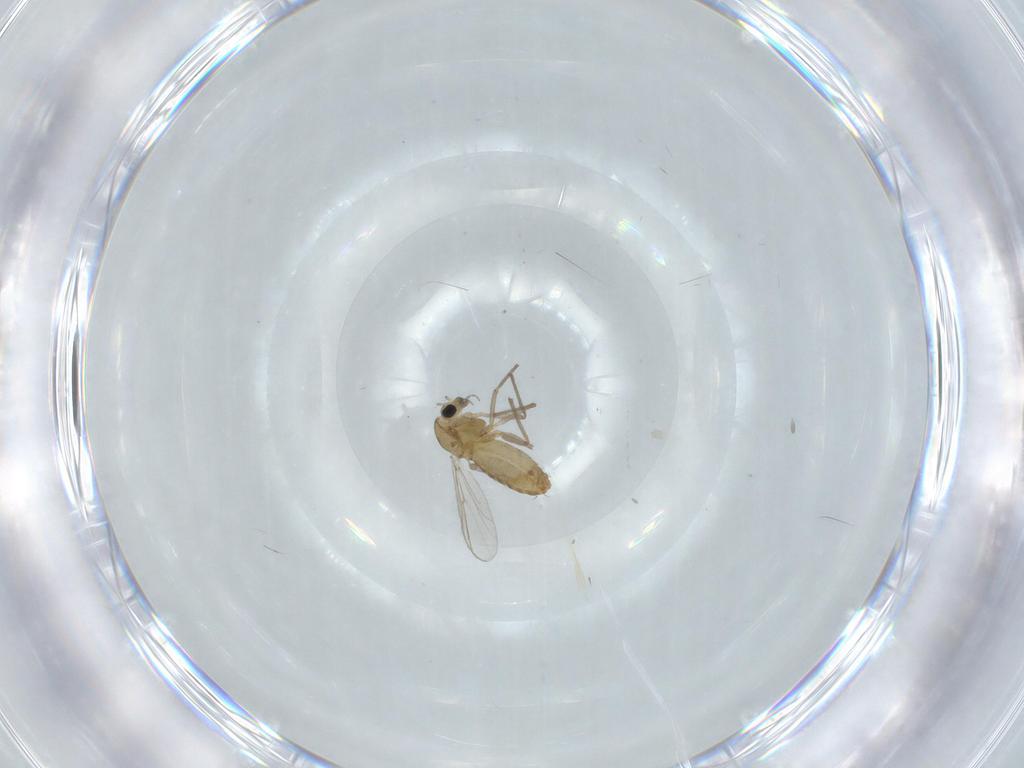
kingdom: Animalia
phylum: Arthropoda
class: Insecta
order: Diptera
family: Chironomidae
